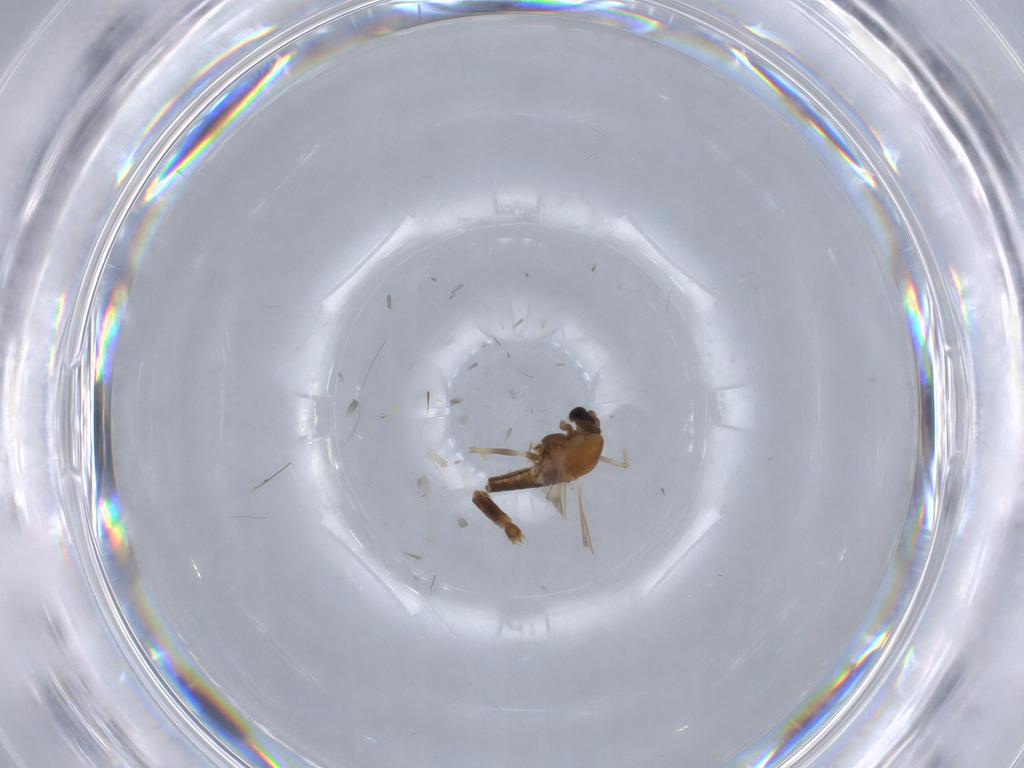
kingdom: Animalia
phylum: Arthropoda
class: Insecta
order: Diptera
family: Chironomidae
